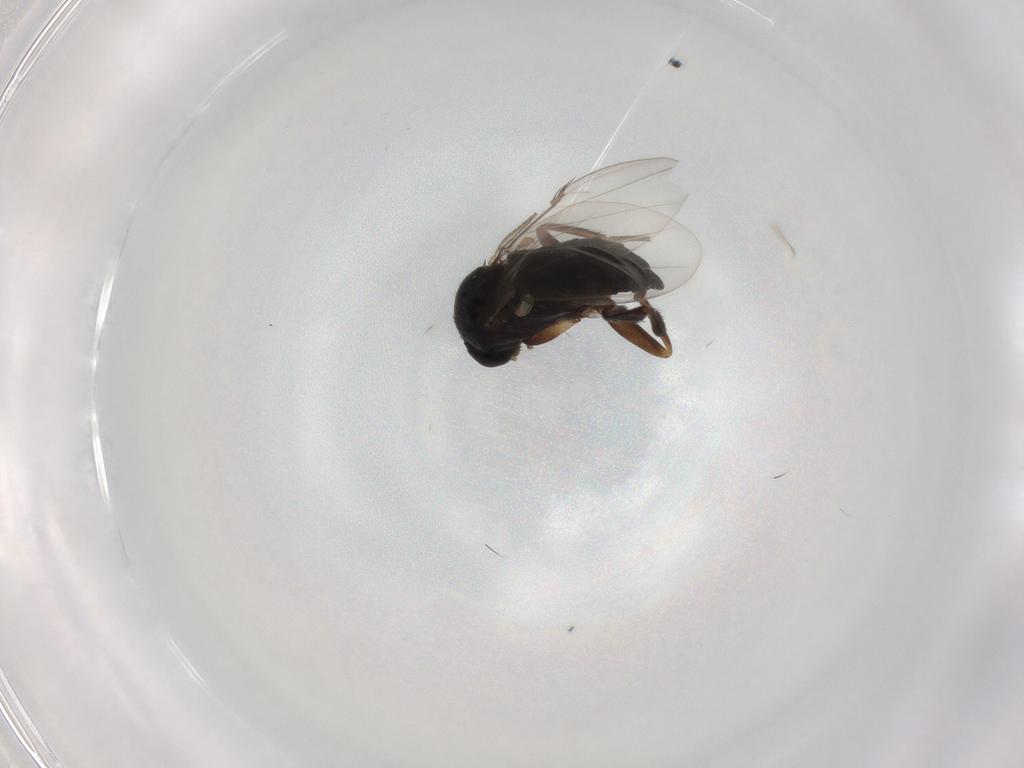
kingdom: Animalia
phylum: Arthropoda
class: Insecta
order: Diptera
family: Phoridae
